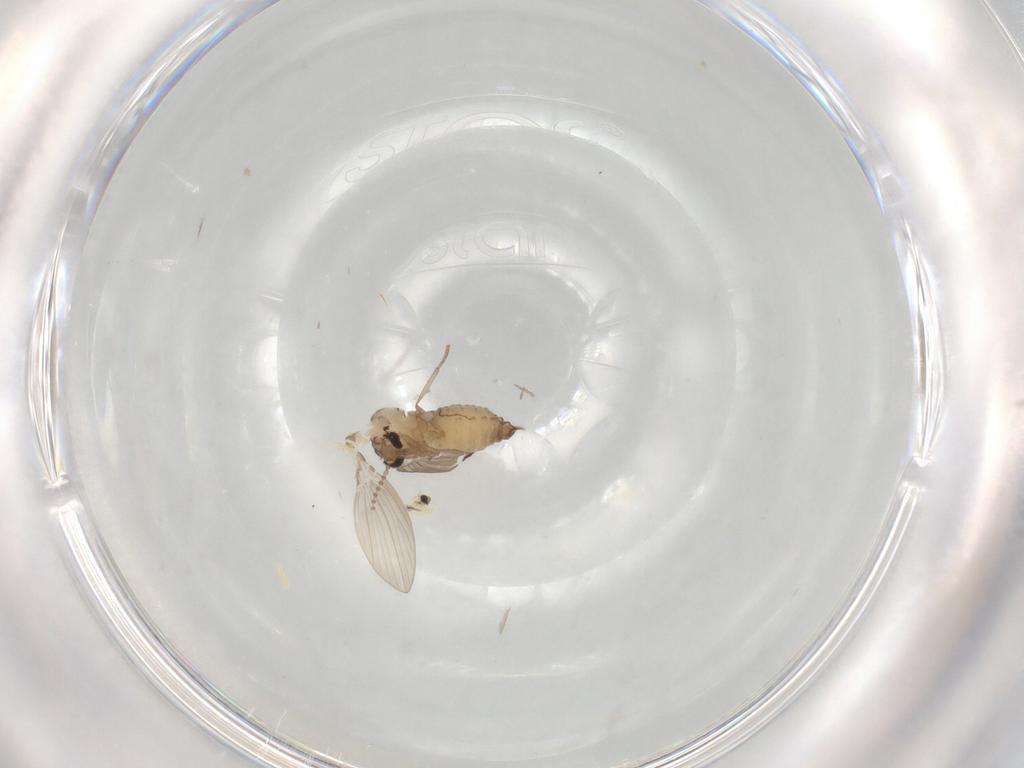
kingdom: Animalia
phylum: Arthropoda
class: Insecta
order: Diptera
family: Psychodidae
